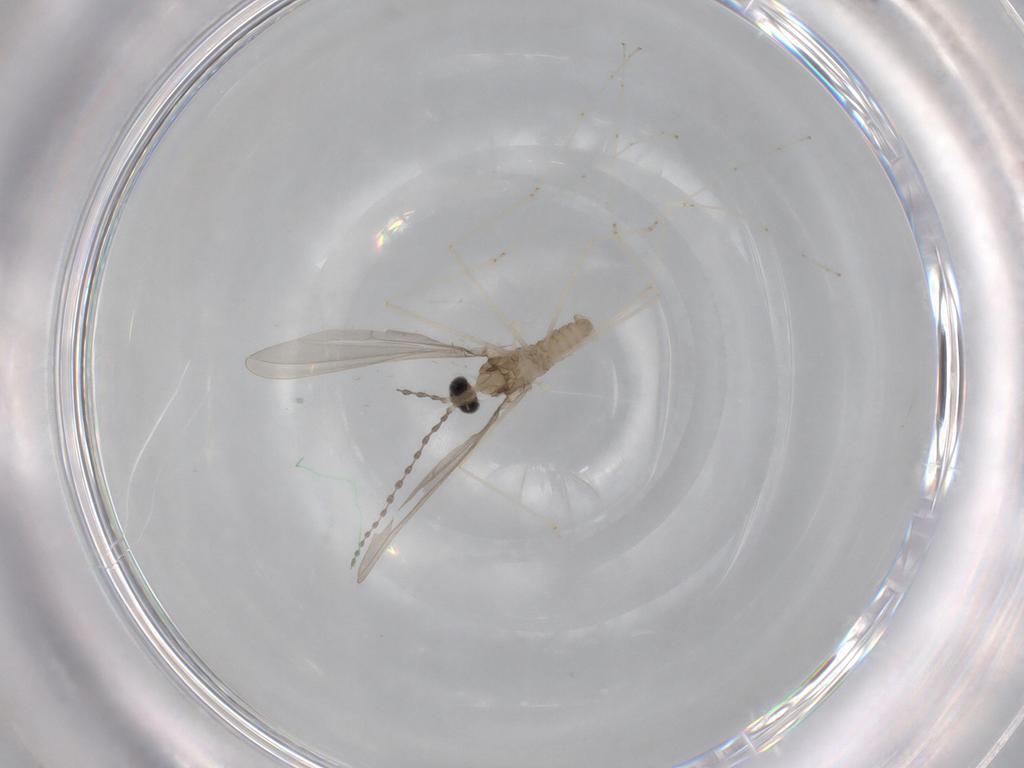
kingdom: Animalia
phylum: Arthropoda
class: Insecta
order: Diptera
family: Cecidomyiidae
